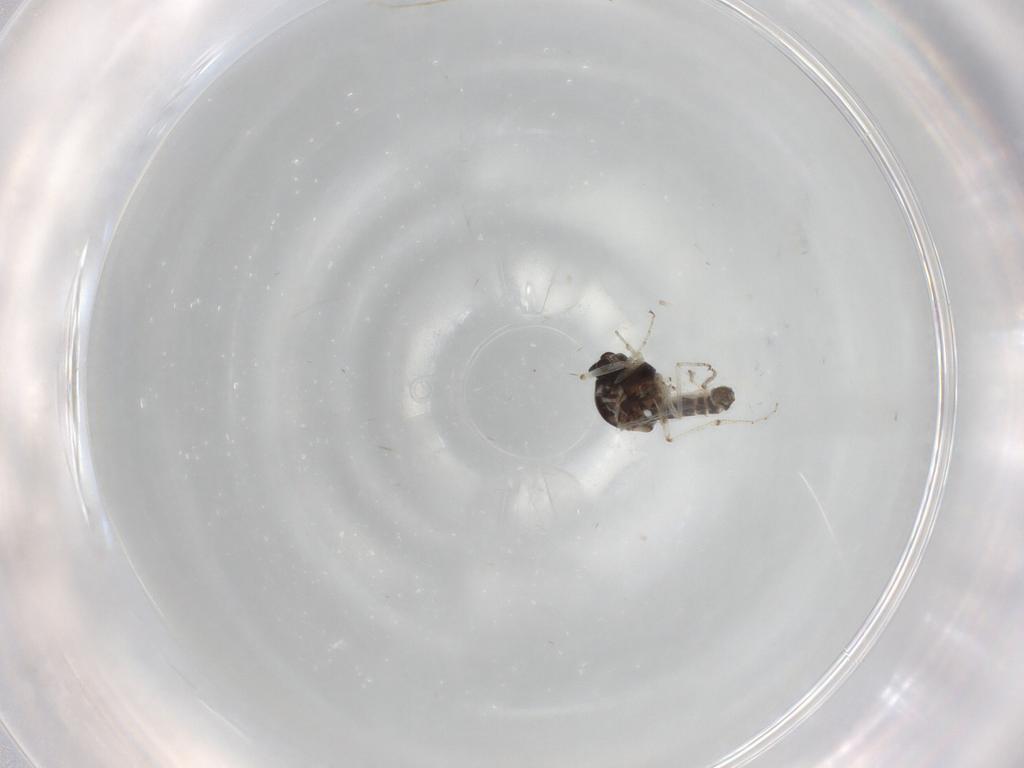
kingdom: Animalia
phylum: Arthropoda
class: Insecta
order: Diptera
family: Ceratopogonidae
